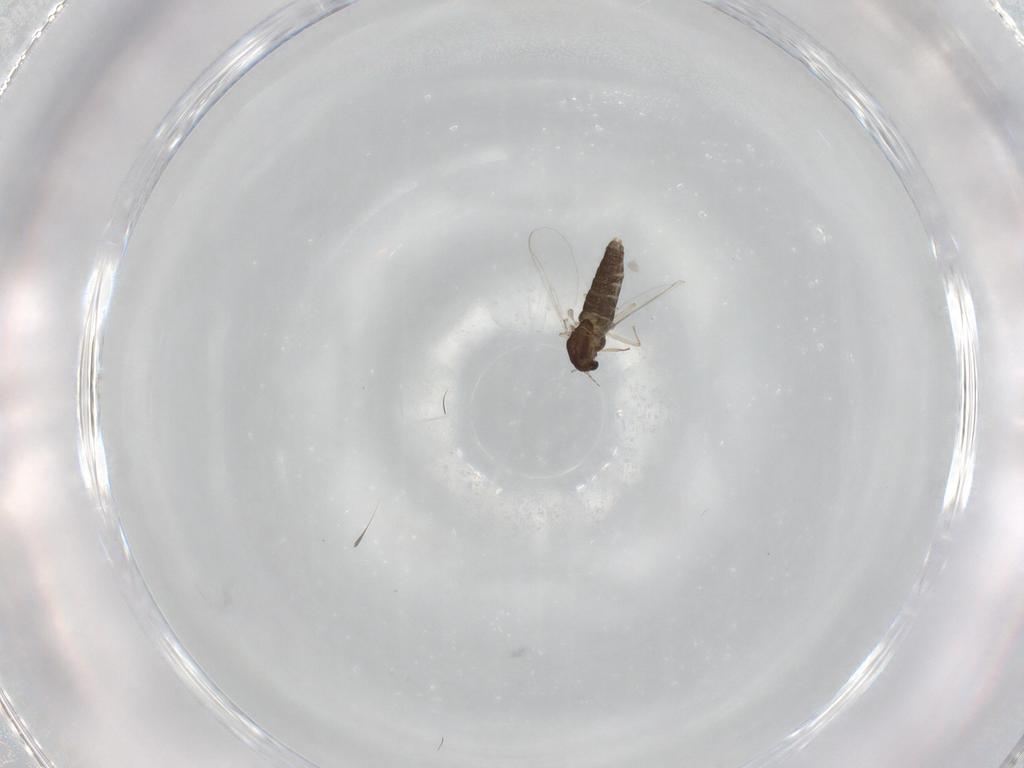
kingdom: Animalia
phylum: Arthropoda
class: Insecta
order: Diptera
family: Chironomidae
